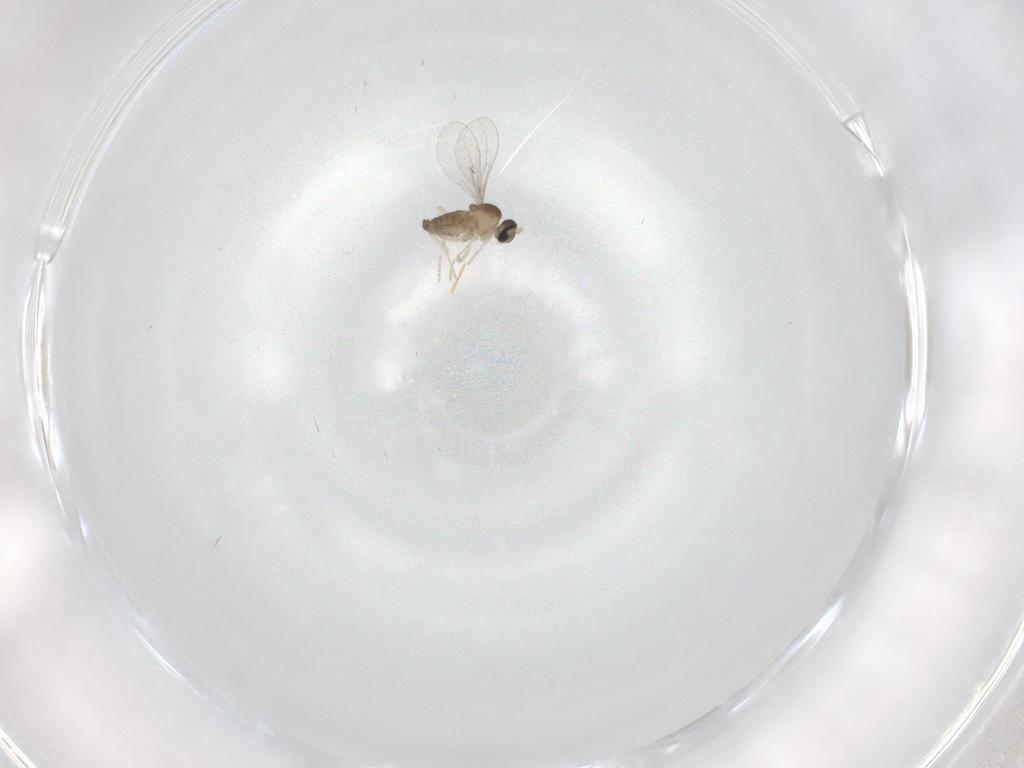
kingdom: Animalia
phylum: Arthropoda
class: Insecta
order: Diptera
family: Cecidomyiidae
